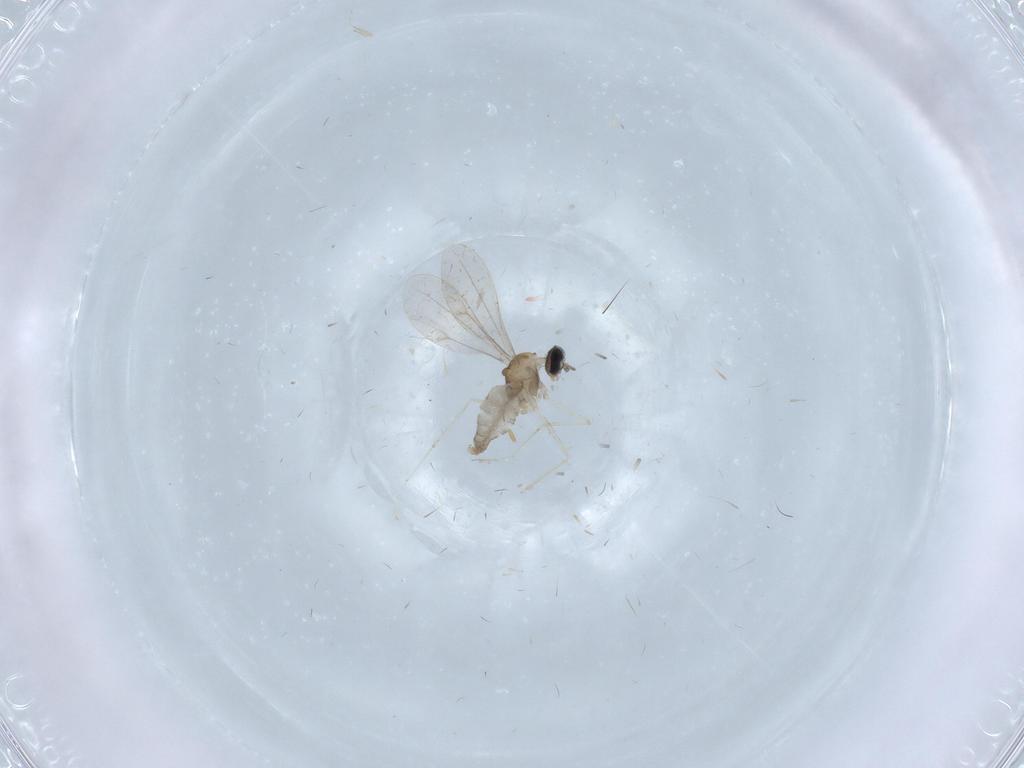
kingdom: Animalia
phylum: Arthropoda
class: Insecta
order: Diptera
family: Cecidomyiidae
